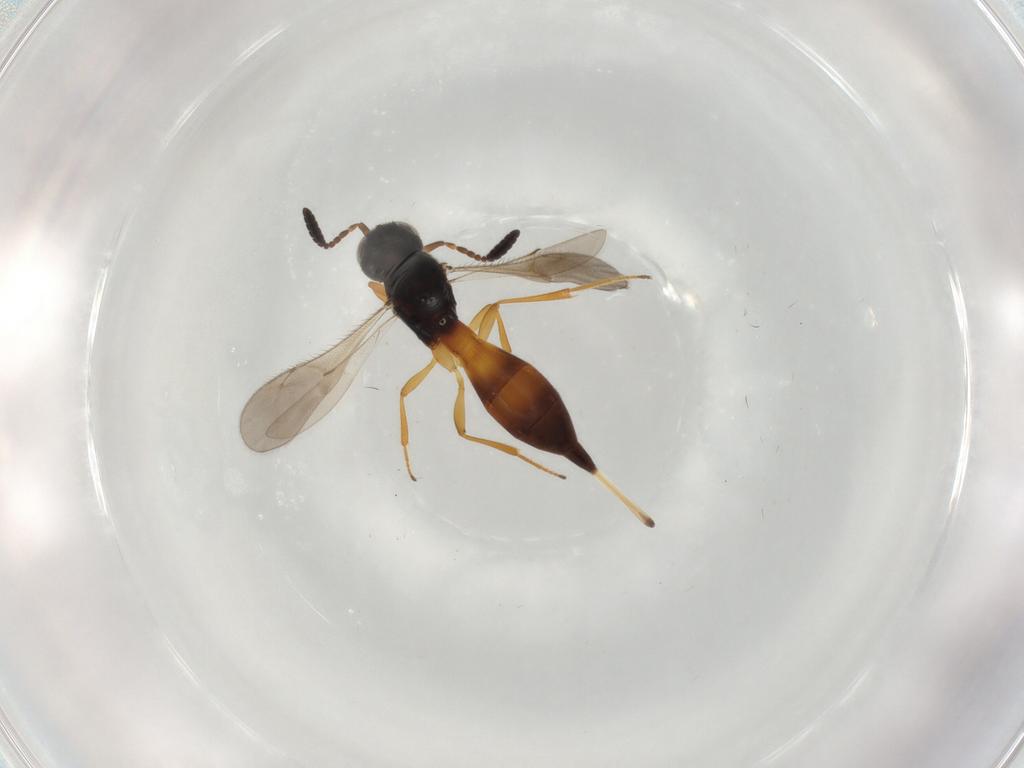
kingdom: Animalia
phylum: Arthropoda
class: Insecta
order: Hymenoptera
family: Scelionidae
